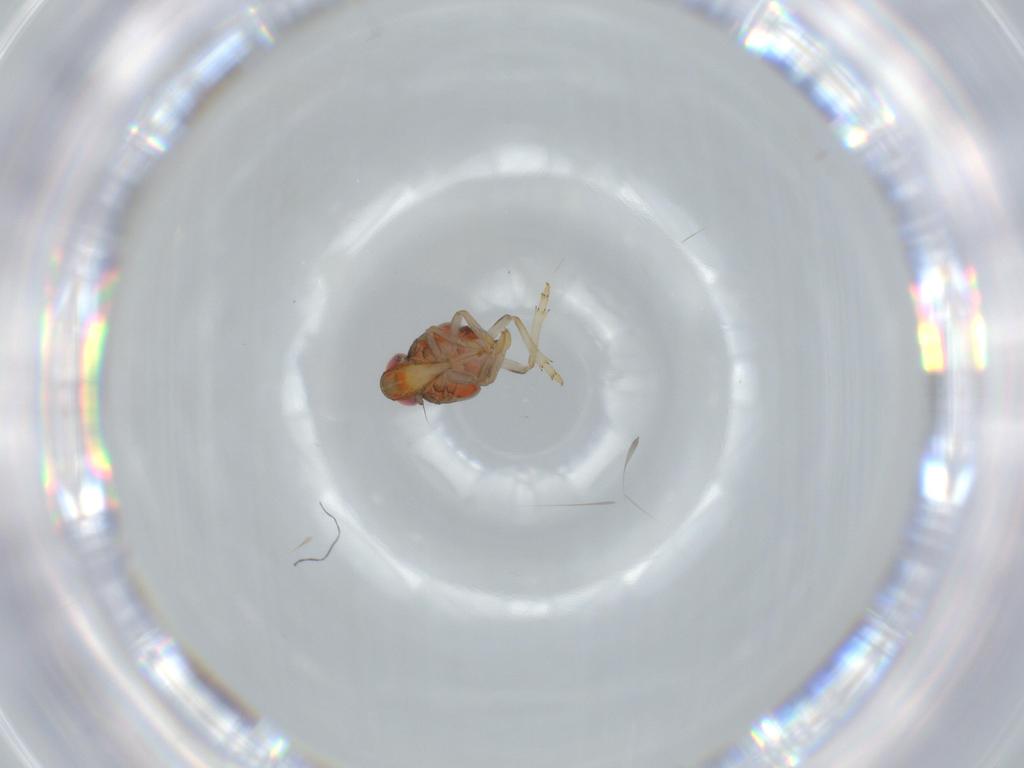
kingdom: Animalia
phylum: Arthropoda
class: Insecta
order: Hemiptera
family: Issidae
